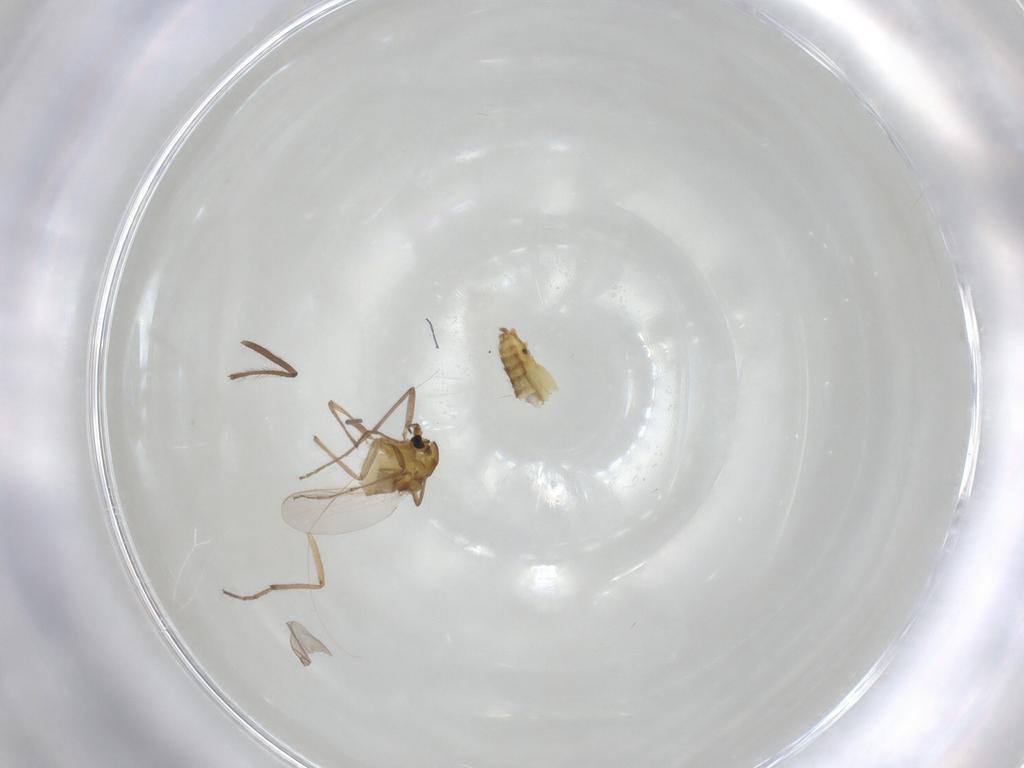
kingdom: Animalia
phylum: Arthropoda
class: Insecta
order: Diptera
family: Chironomidae
